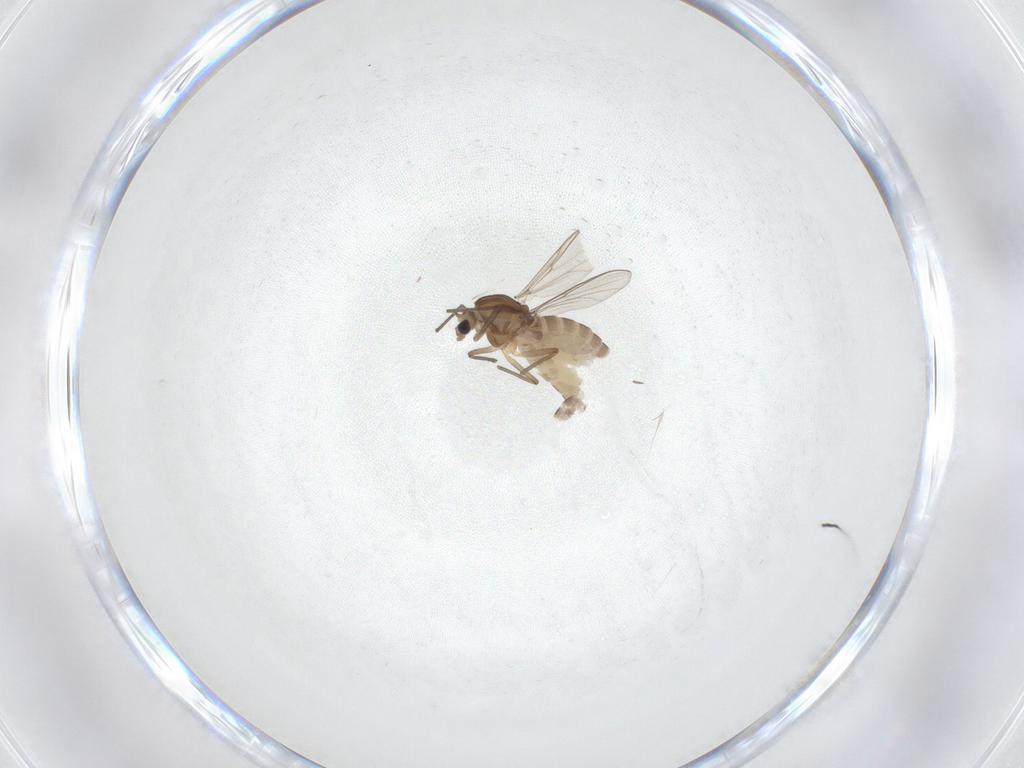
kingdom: Animalia
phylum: Arthropoda
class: Insecta
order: Diptera
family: Chironomidae
